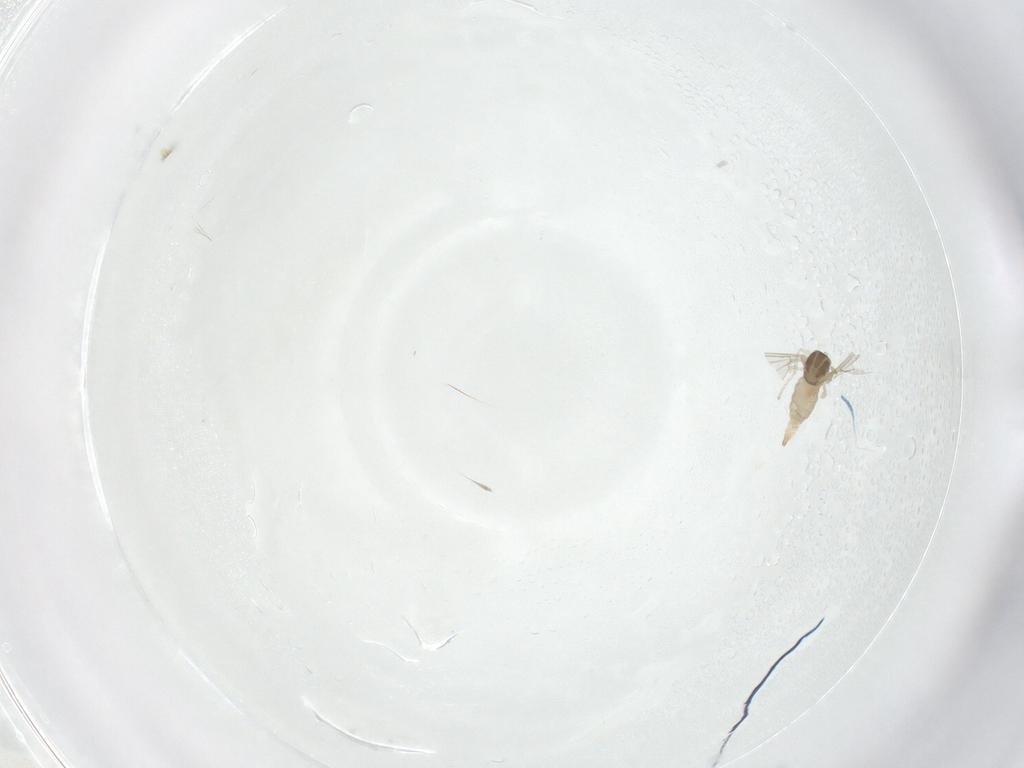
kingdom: Animalia
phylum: Arthropoda
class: Insecta
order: Diptera
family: Cecidomyiidae
